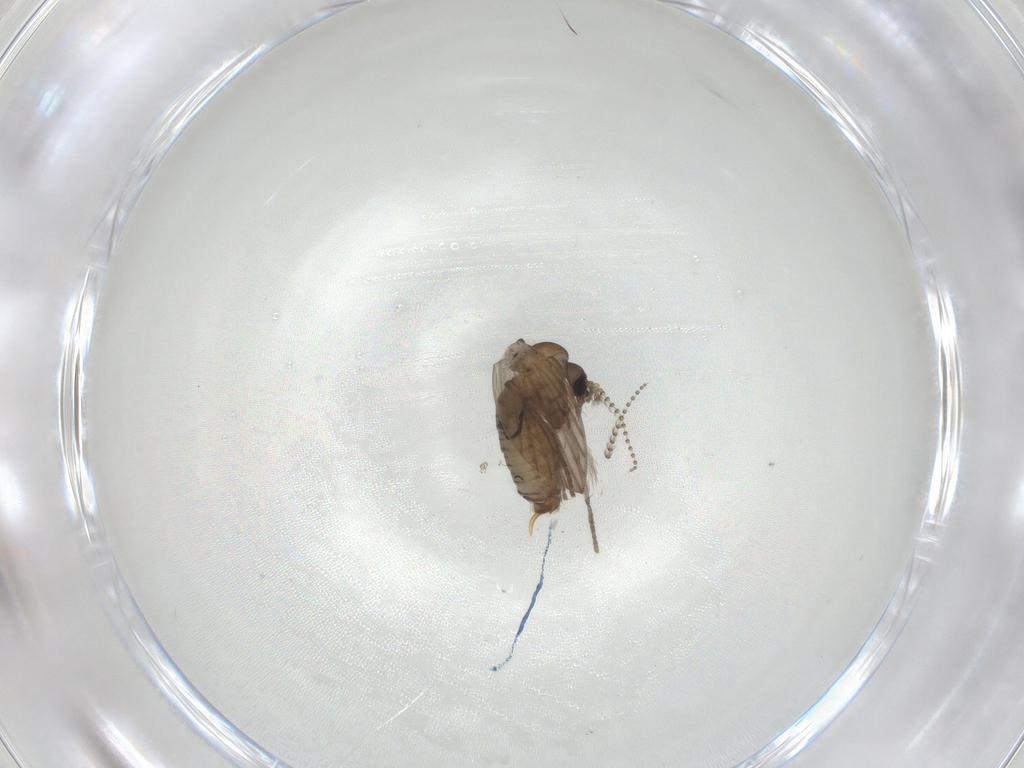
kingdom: Animalia
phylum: Arthropoda
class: Insecta
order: Diptera
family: Psychodidae
